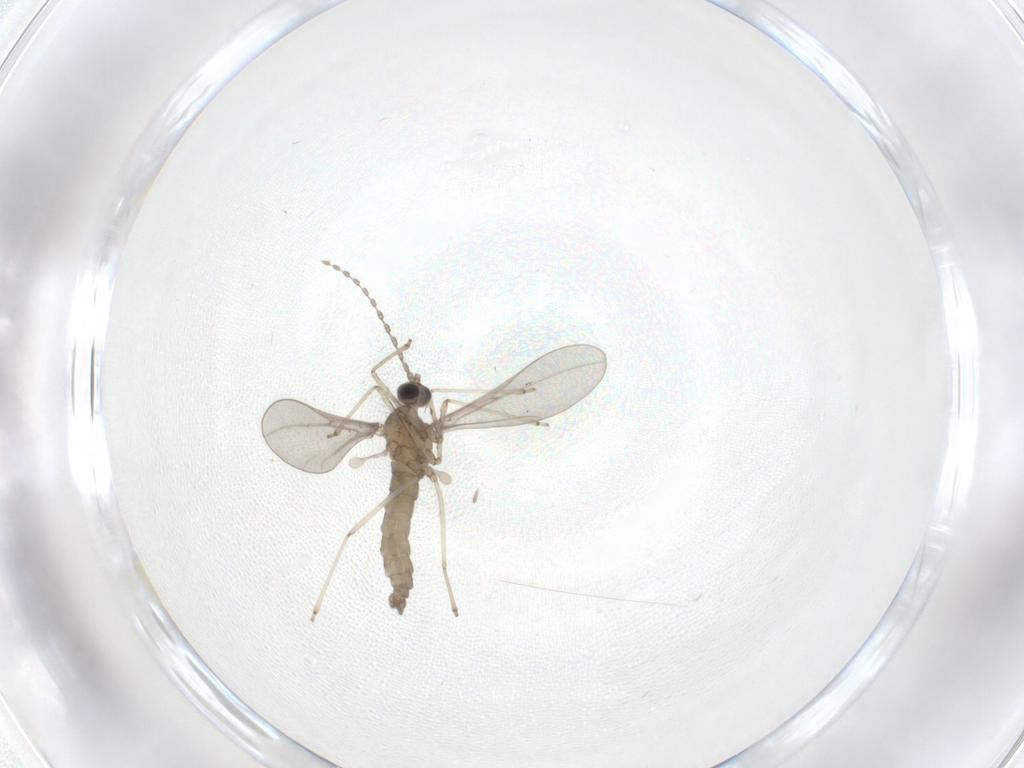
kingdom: Animalia
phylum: Arthropoda
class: Insecta
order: Diptera
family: Cecidomyiidae
